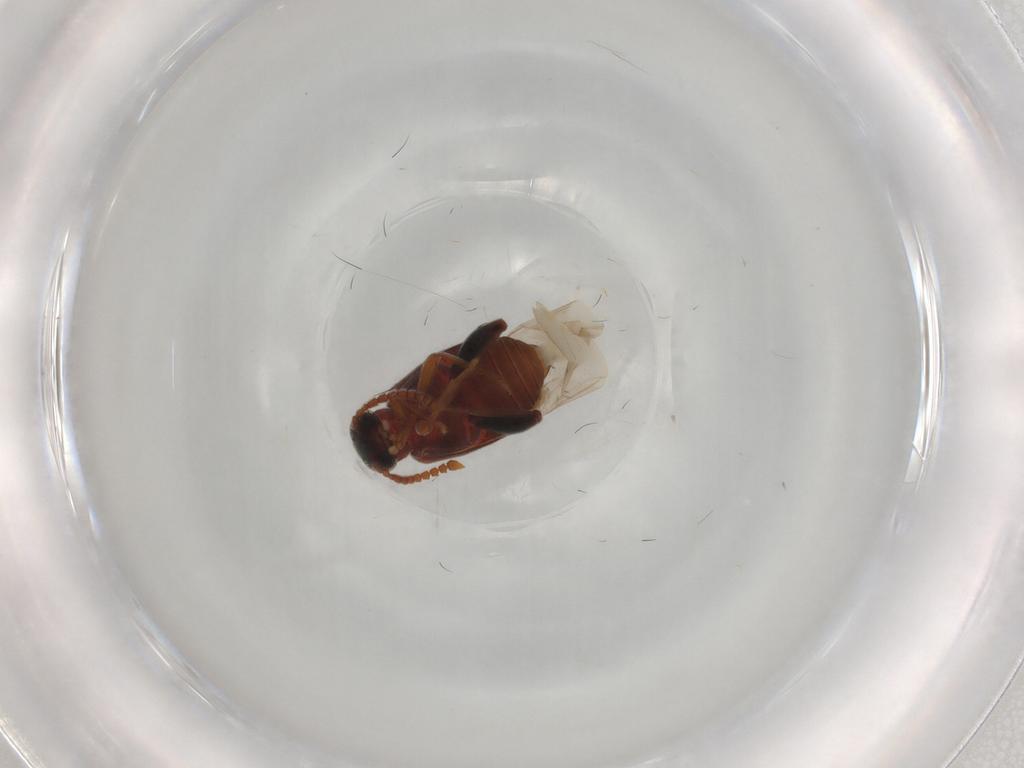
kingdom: Animalia
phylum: Arthropoda
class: Insecta
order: Coleoptera
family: Aderidae
